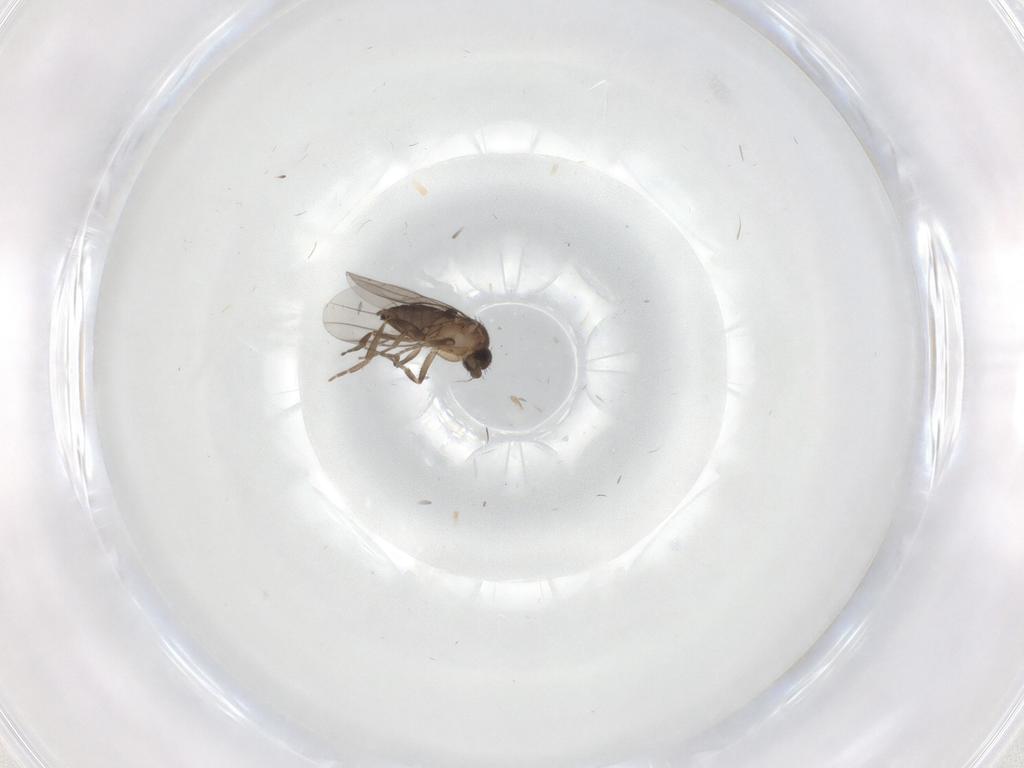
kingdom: Animalia
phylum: Arthropoda
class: Insecta
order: Diptera
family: Cecidomyiidae
